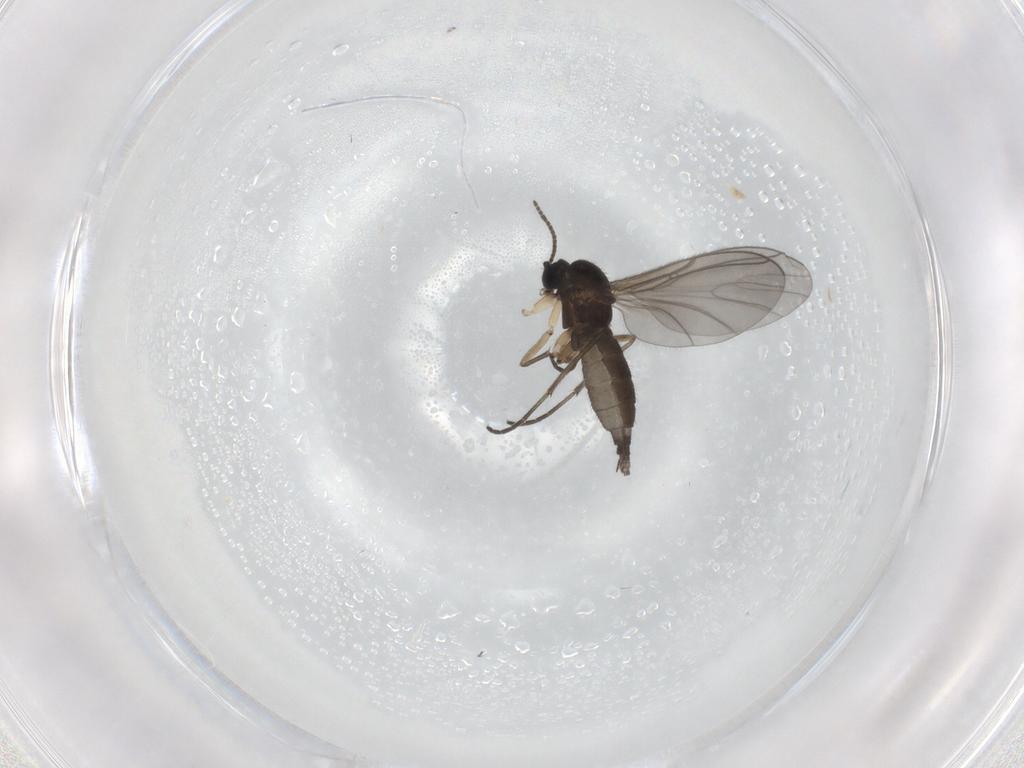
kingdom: Animalia
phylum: Arthropoda
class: Insecta
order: Diptera
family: Sciaridae
